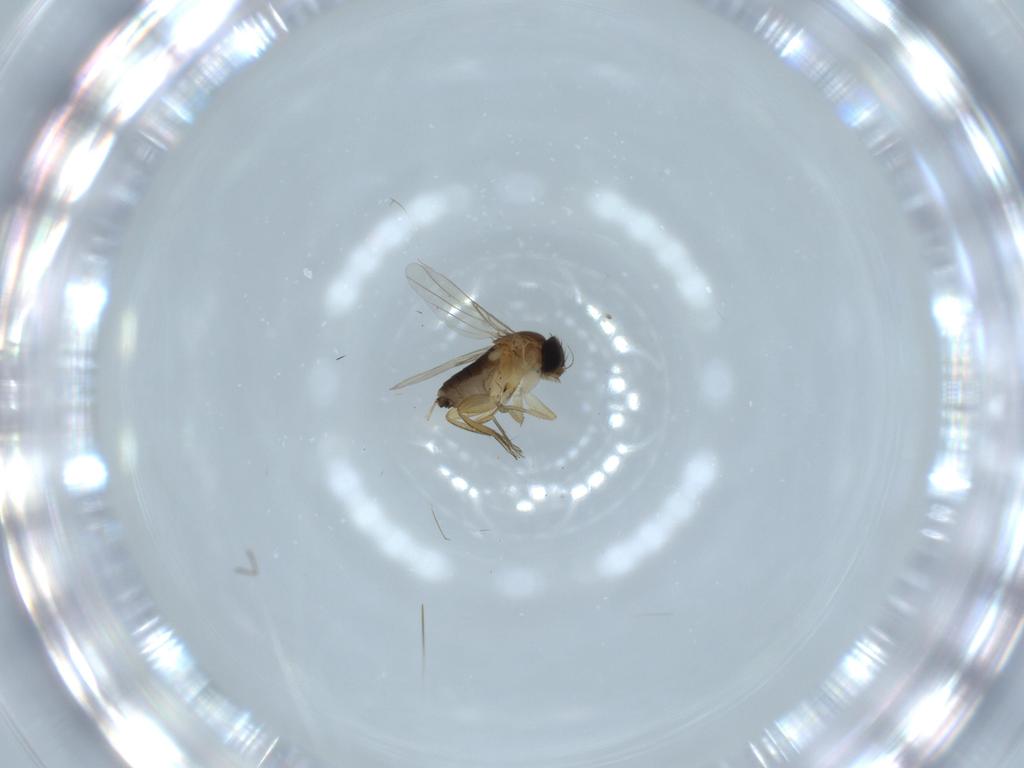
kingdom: Animalia
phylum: Arthropoda
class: Insecta
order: Diptera
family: Phoridae
